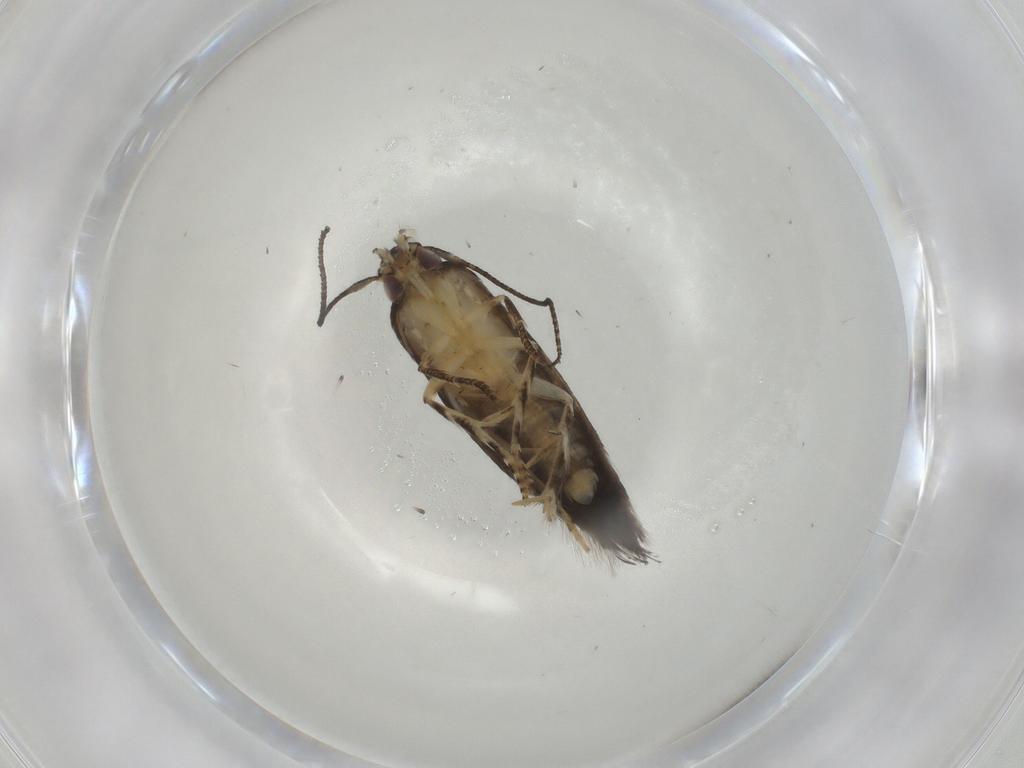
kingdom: Animalia
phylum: Arthropoda
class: Insecta
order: Lepidoptera
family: Elachistidae
